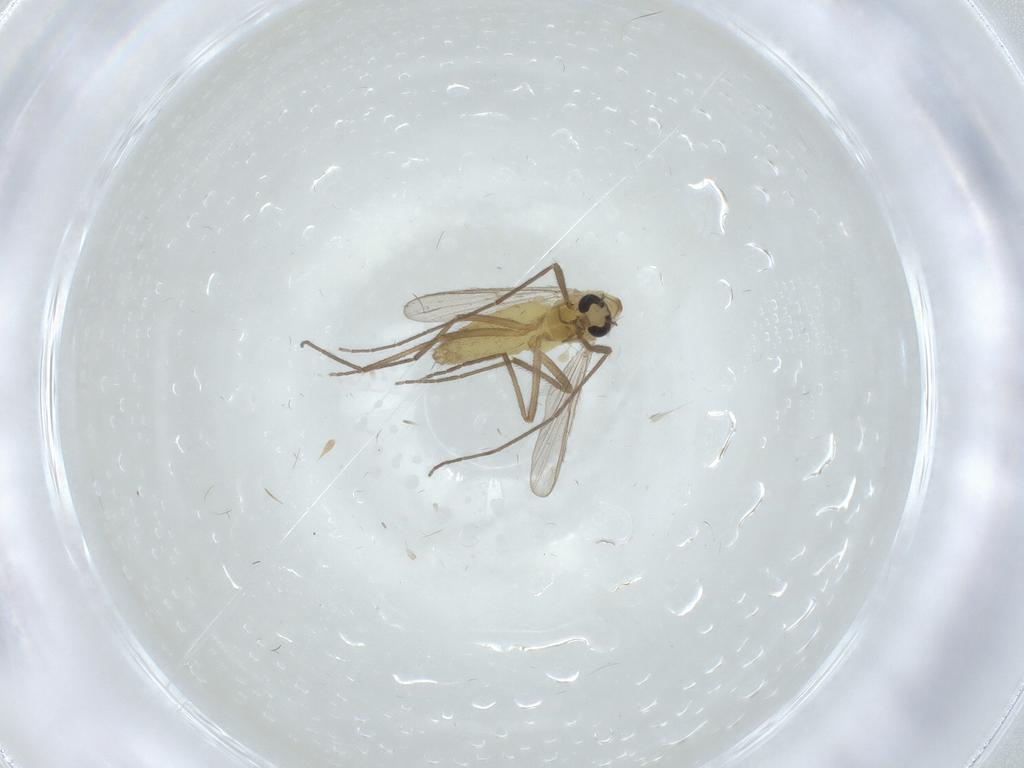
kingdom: Animalia
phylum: Arthropoda
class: Insecta
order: Diptera
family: Chironomidae
